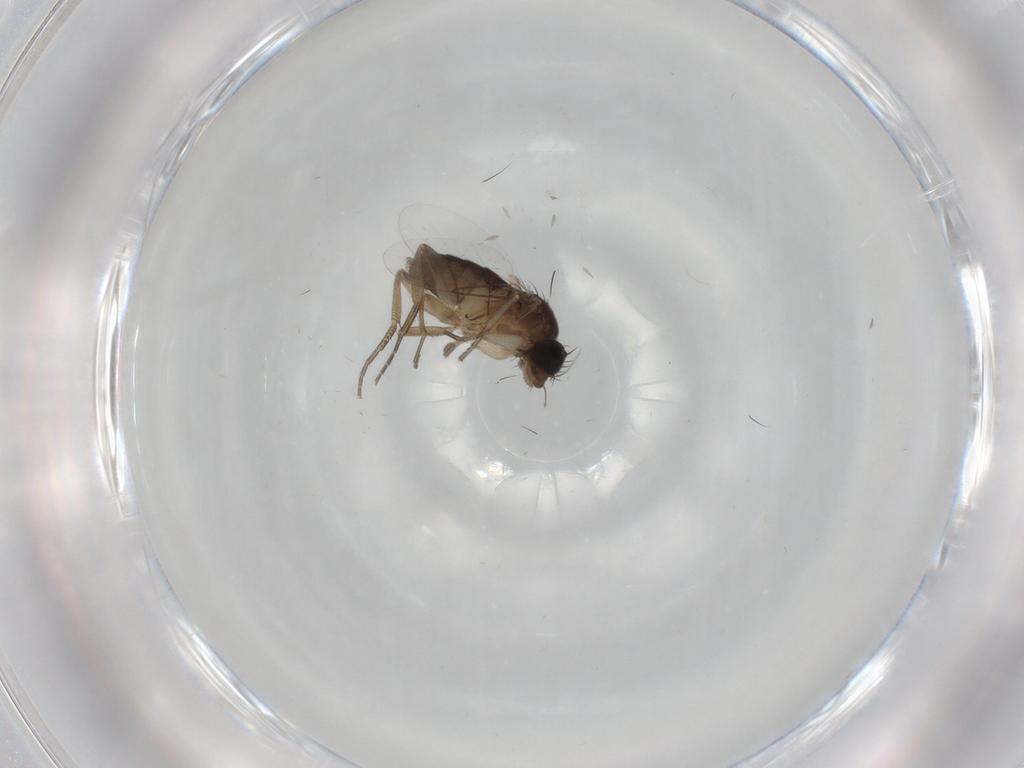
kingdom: Animalia
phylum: Arthropoda
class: Insecta
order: Diptera
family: Phoridae
